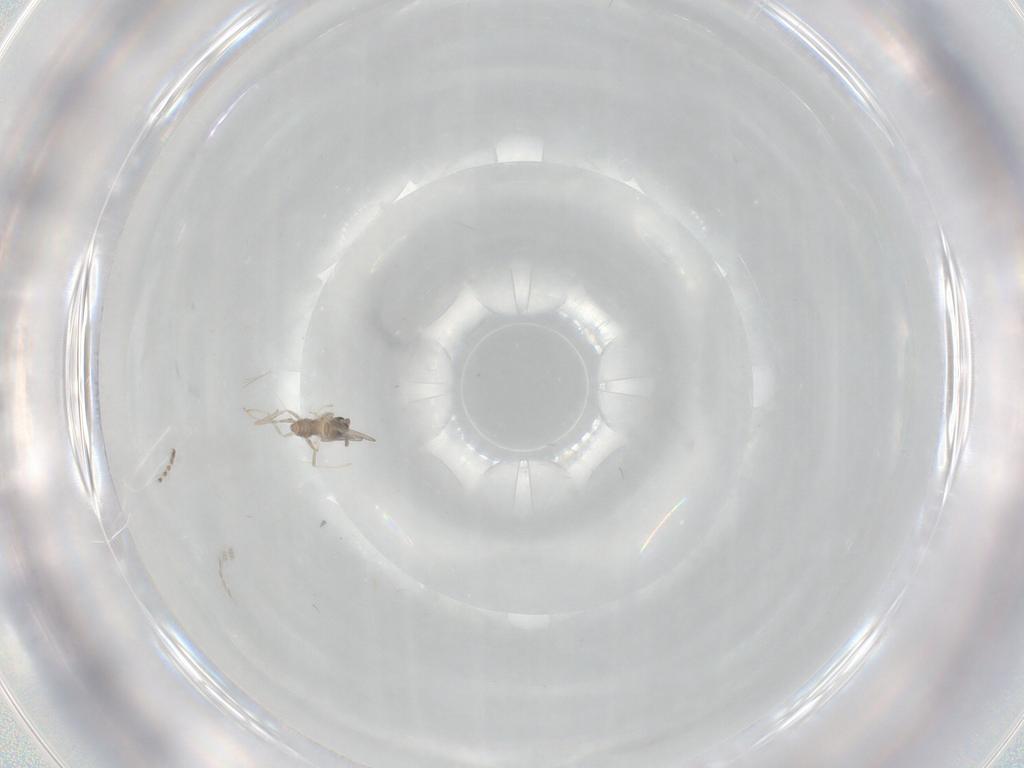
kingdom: Animalia
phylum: Arthropoda
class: Insecta
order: Diptera
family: Cecidomyiidae
